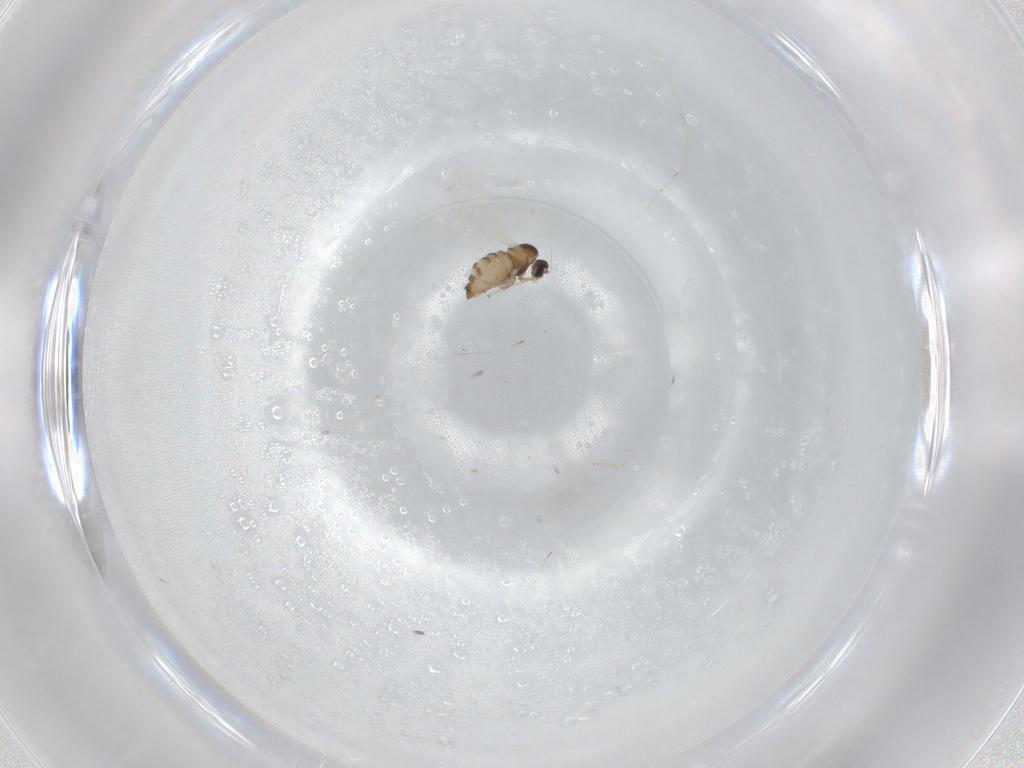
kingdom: Animalia
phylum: Arthropoda
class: Insecta
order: Diptera
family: Cecidomyiidae
